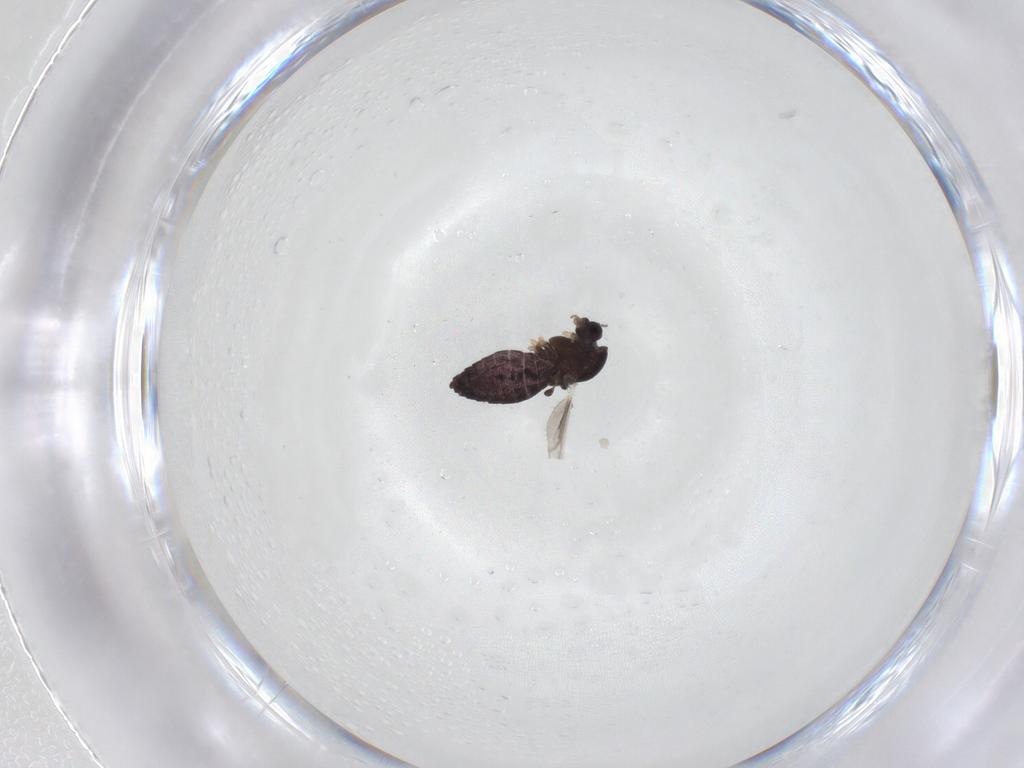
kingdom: Animalia
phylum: Arthropoda
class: Insecta
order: Diptera
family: Chironomidae
